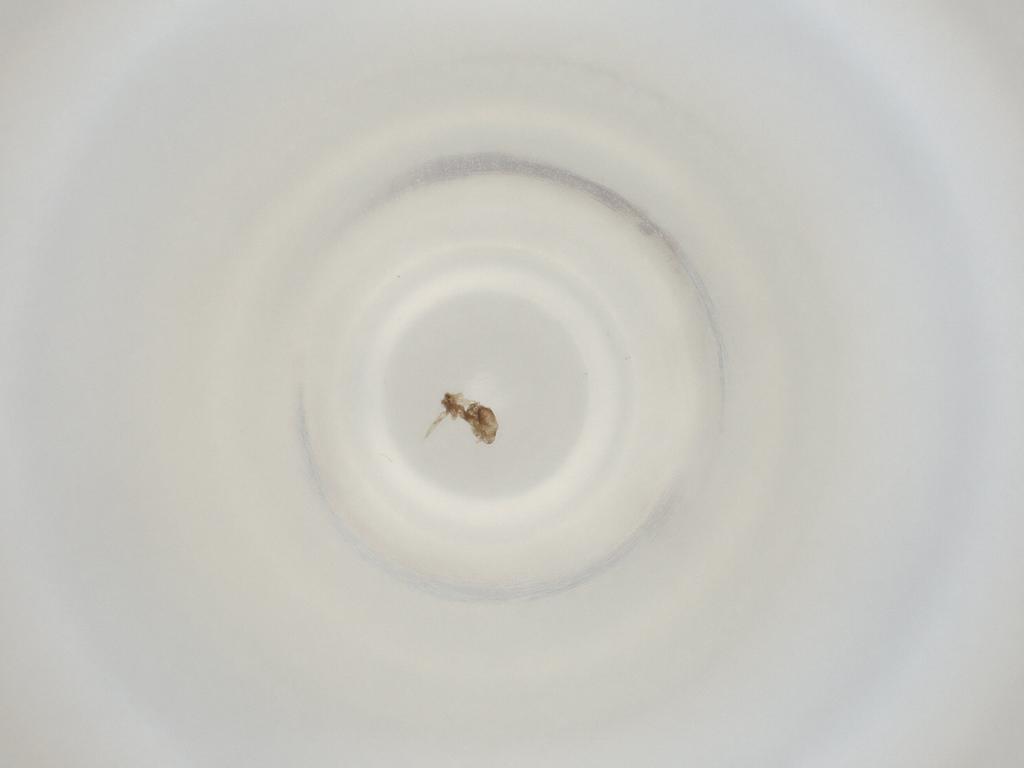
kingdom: Animalia
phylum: Arthropoda
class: Insecta
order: Diptera
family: Cecidomyiidae
